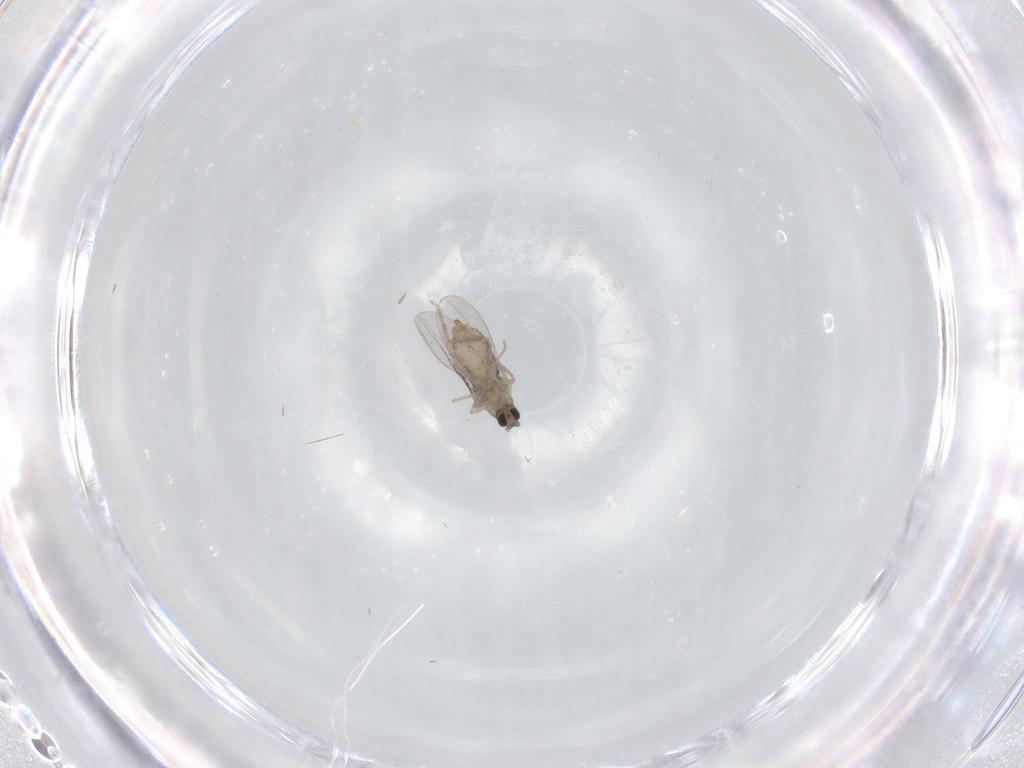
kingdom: Animalia
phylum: Arthropoda
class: Insecta
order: Diptera
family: Cecidomyiidae
